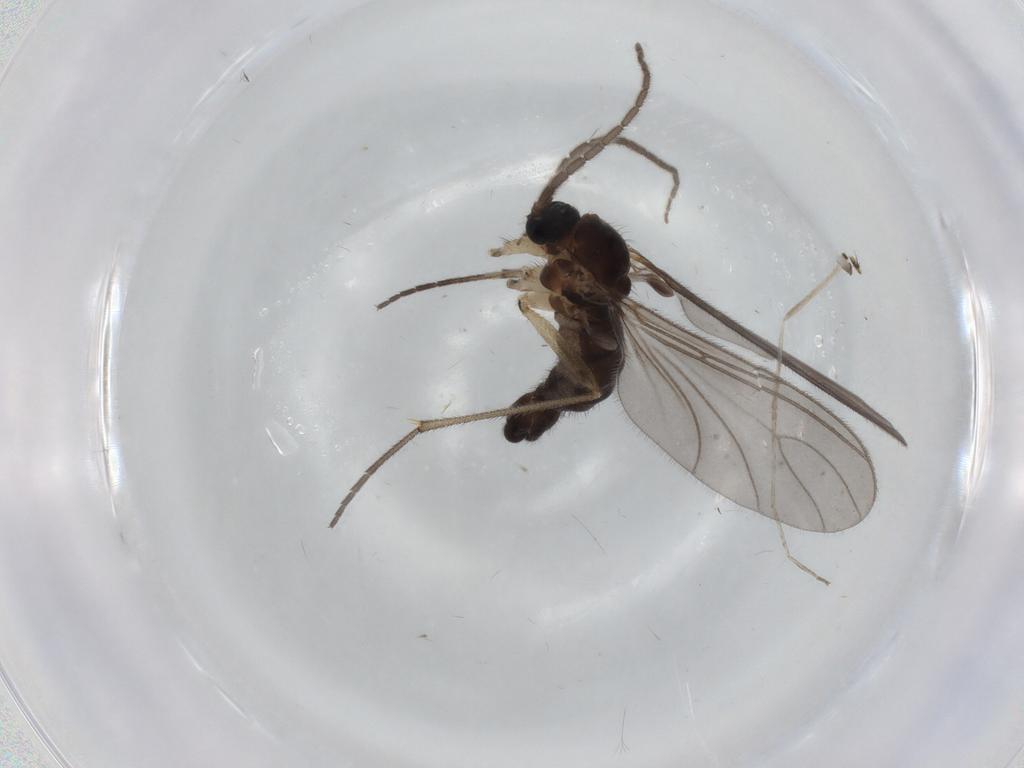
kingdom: Animalia
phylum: Arthropoda
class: Insecta
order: Diptera
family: Sciaridae
